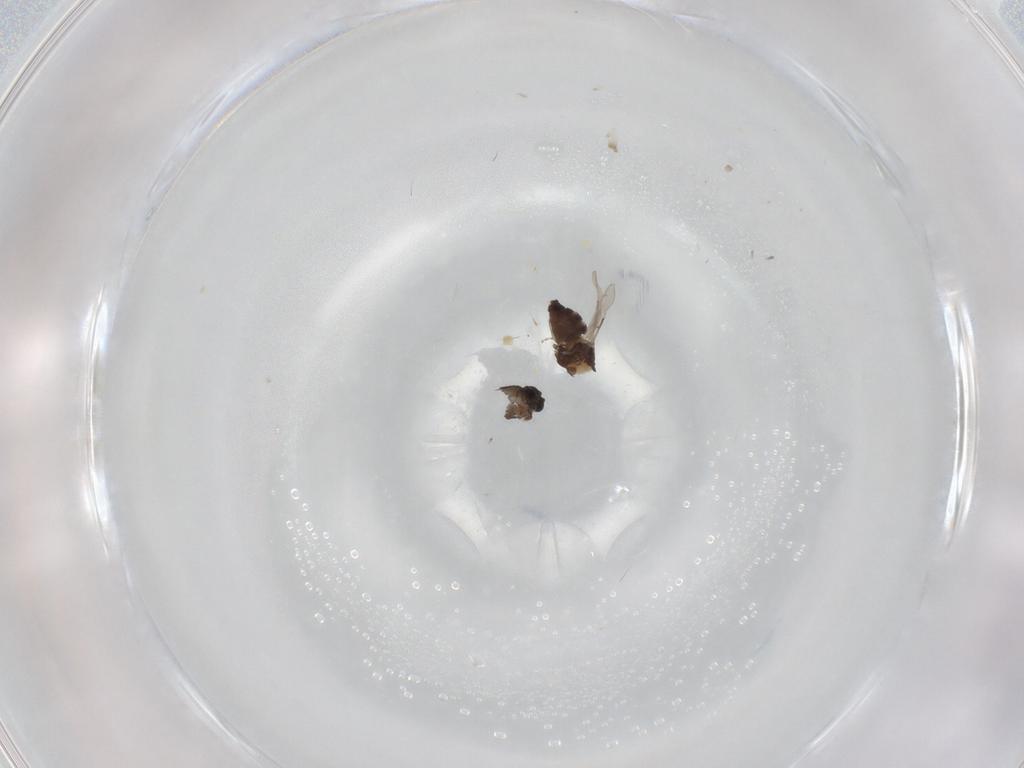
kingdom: Animalia
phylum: Arthropoda
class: Insecta
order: Diptera
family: Ceratopogonidae
